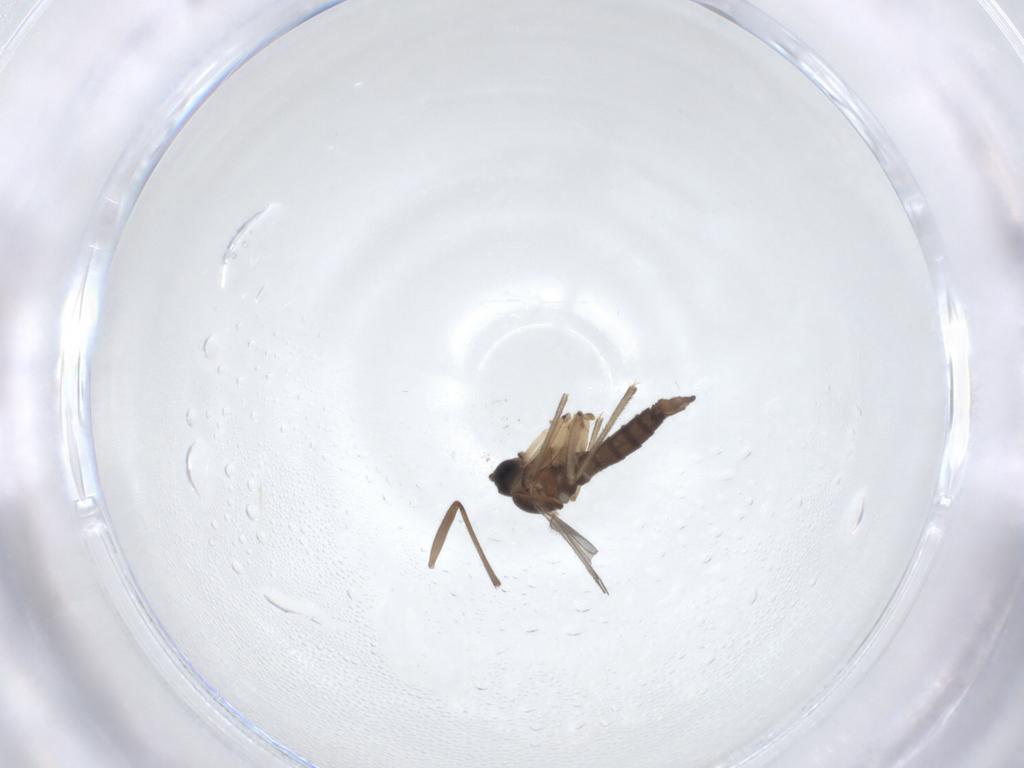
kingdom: Animalia
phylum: Arthropoda
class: Insecta
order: Diptera
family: Sciaridae
